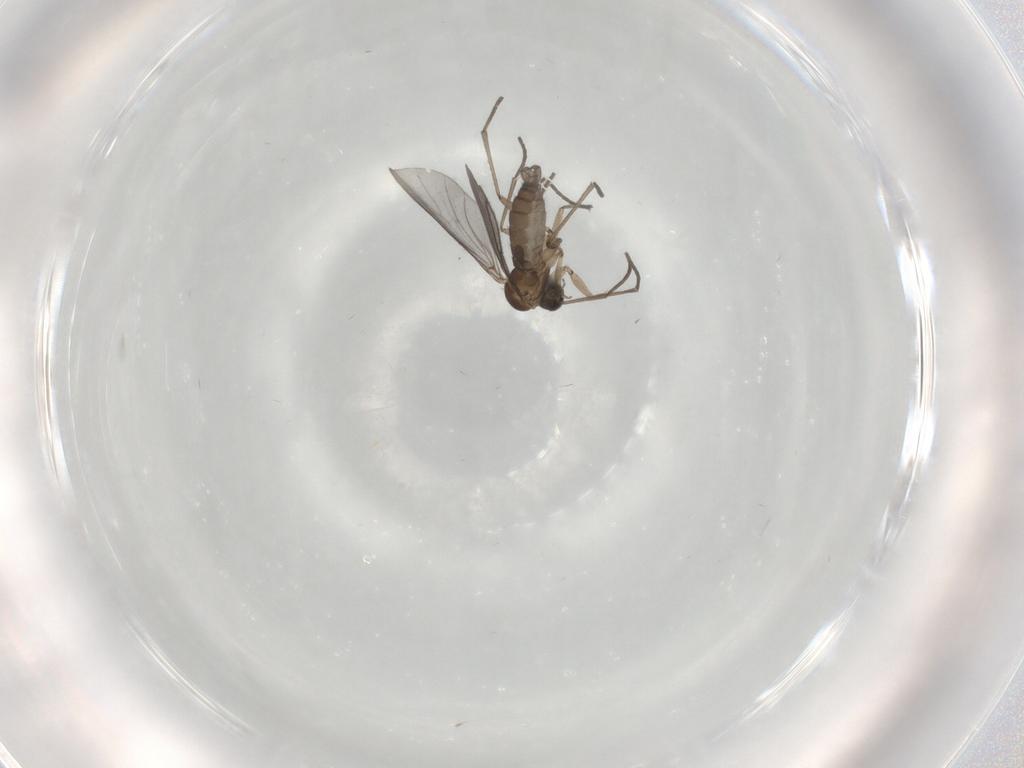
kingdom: Animalia
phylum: Arthropoda
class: Insecta
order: Diptera
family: Sciaridae
